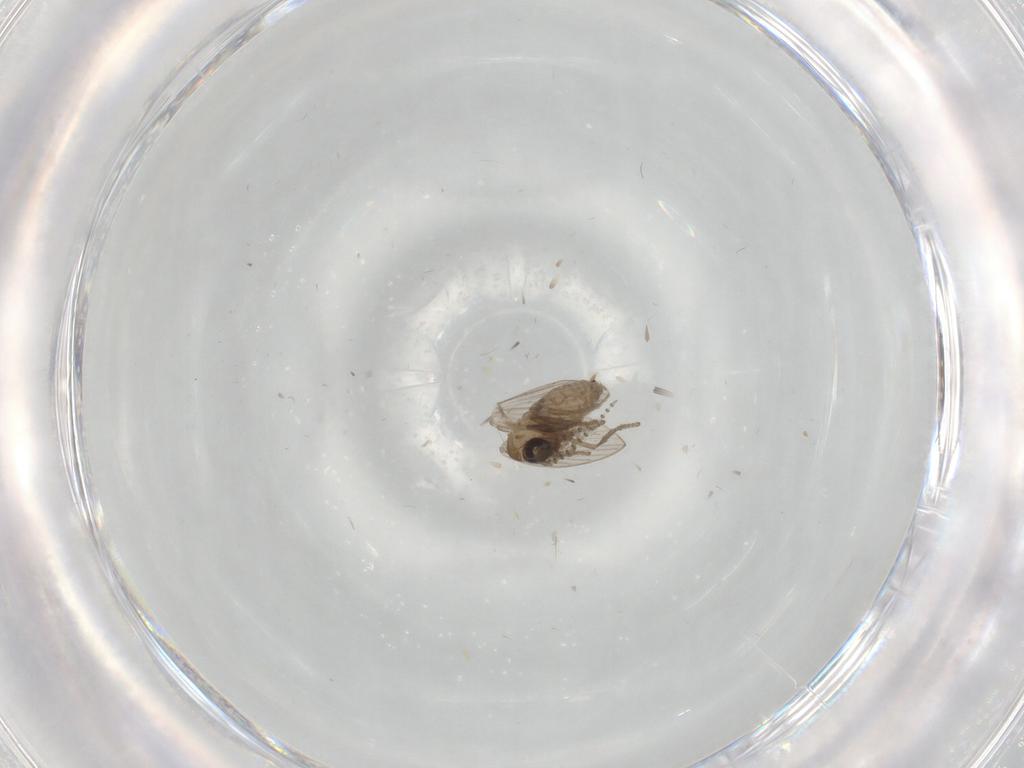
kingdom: Animalia
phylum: Arthropoda
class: Insecta
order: Diptera
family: Psychodidae
